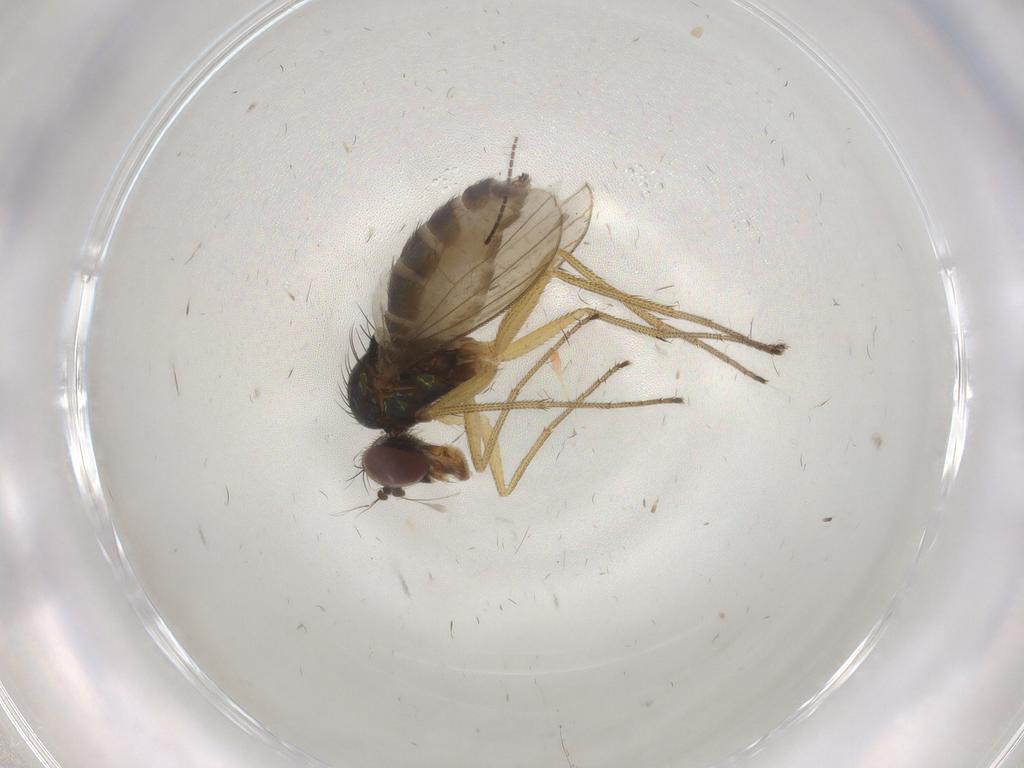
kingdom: Animalia
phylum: Arthropoda
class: Insecta
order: Diptera
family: Dolichopodidae
